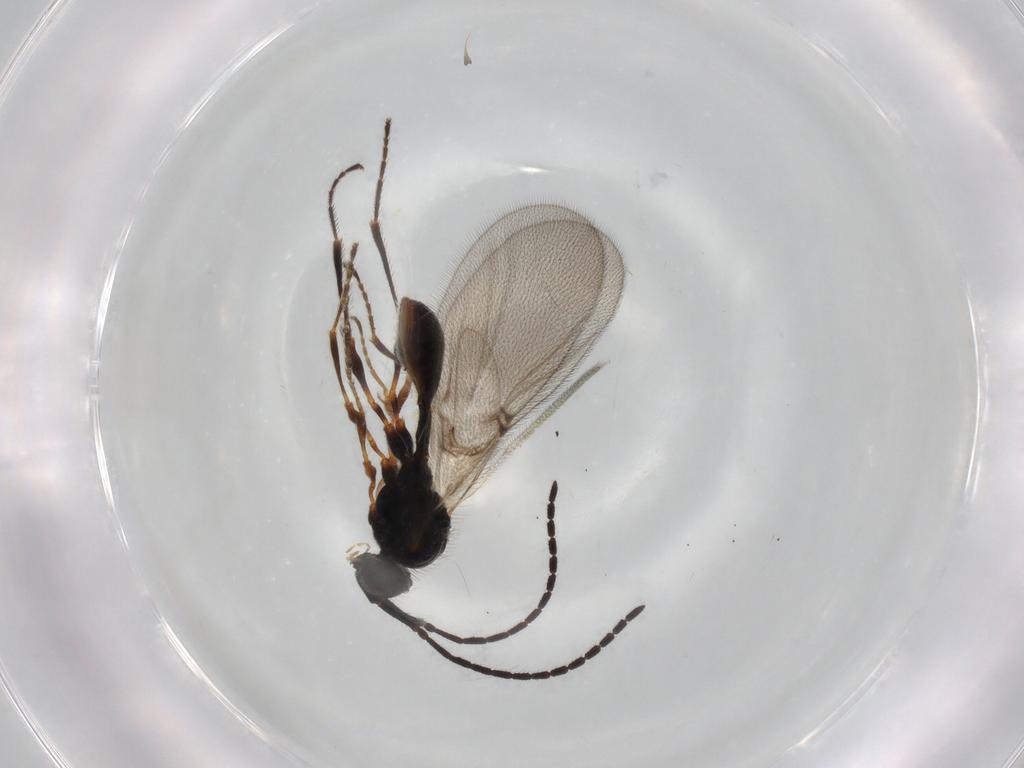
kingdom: Animalia
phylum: Arthropoda
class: Insecta
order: Hymenoptera
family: Diapriidae
